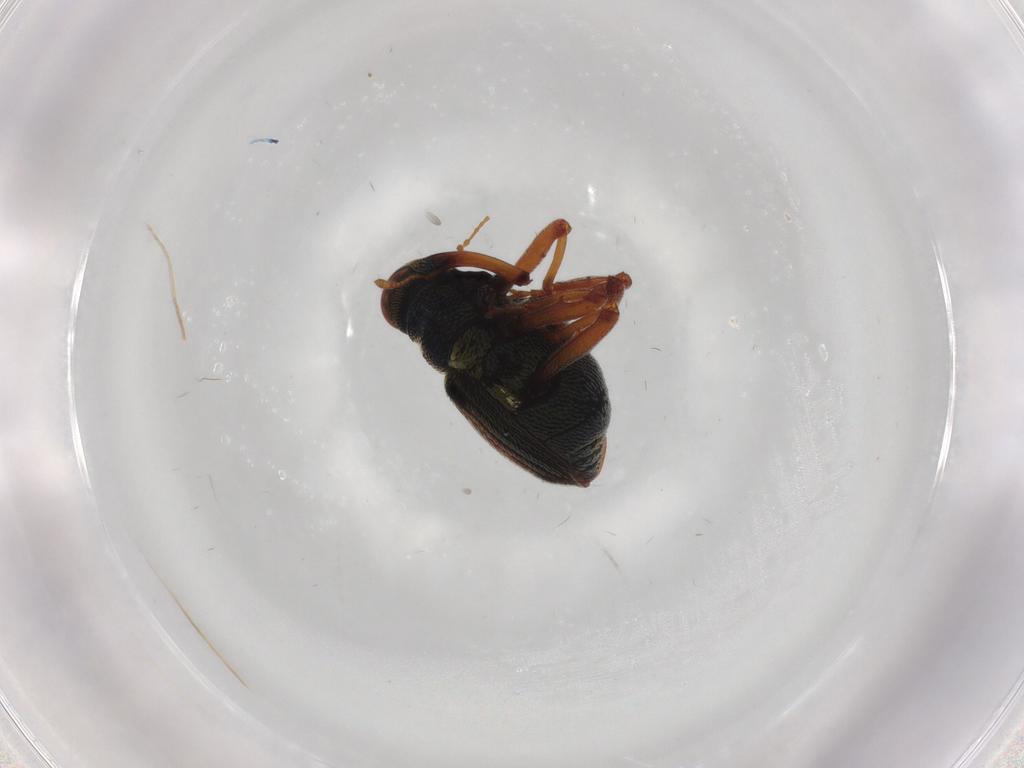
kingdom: Animalia
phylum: Arthropoda
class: Insecta
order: Coleoptera
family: Curculionidae
